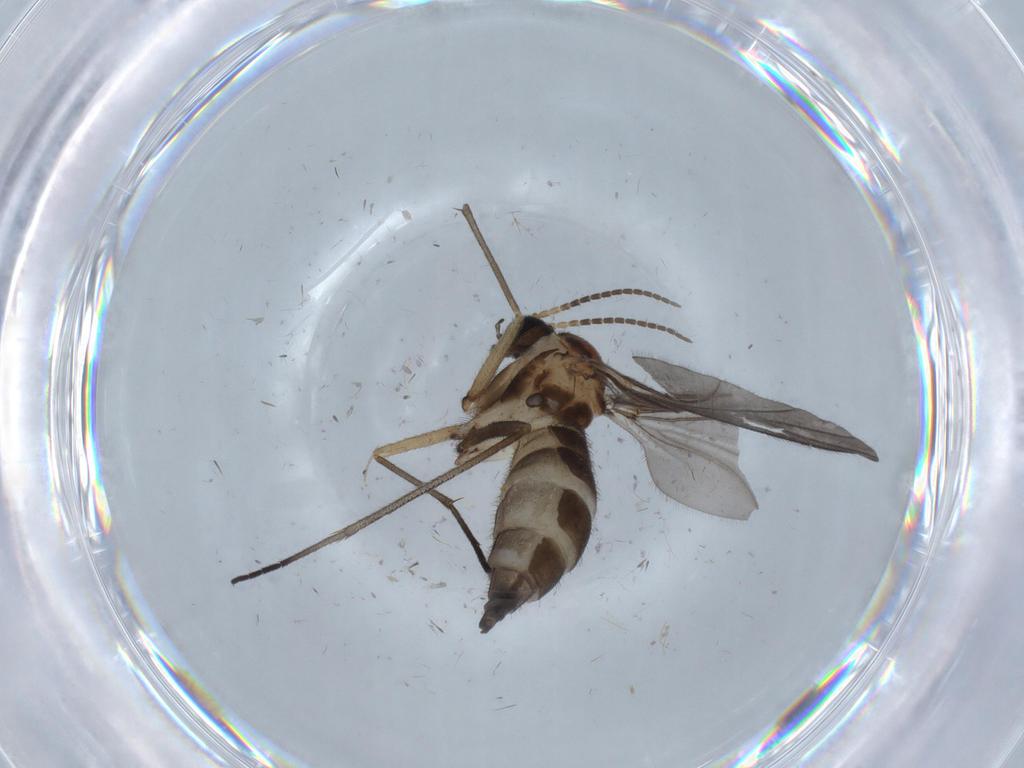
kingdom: Animalia
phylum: Arthropoda
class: Insecta
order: Diptera
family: Sciaridae
